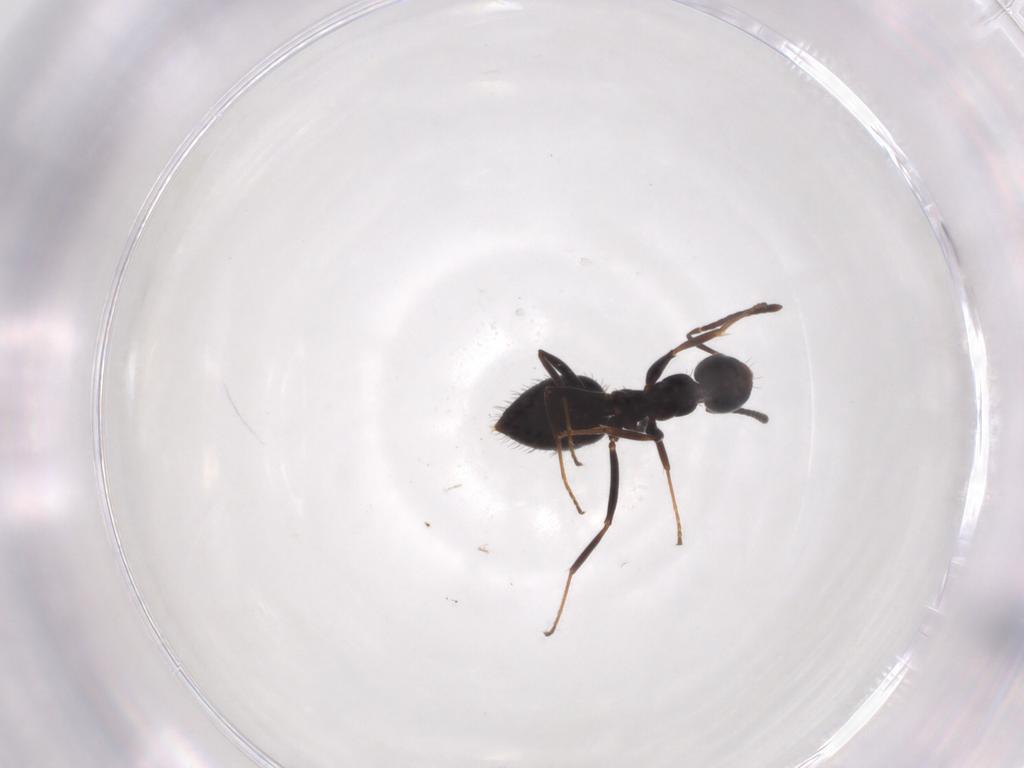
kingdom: Animalia
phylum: Arthropoda
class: Insecta
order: Hymenoptera
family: Formicidae
